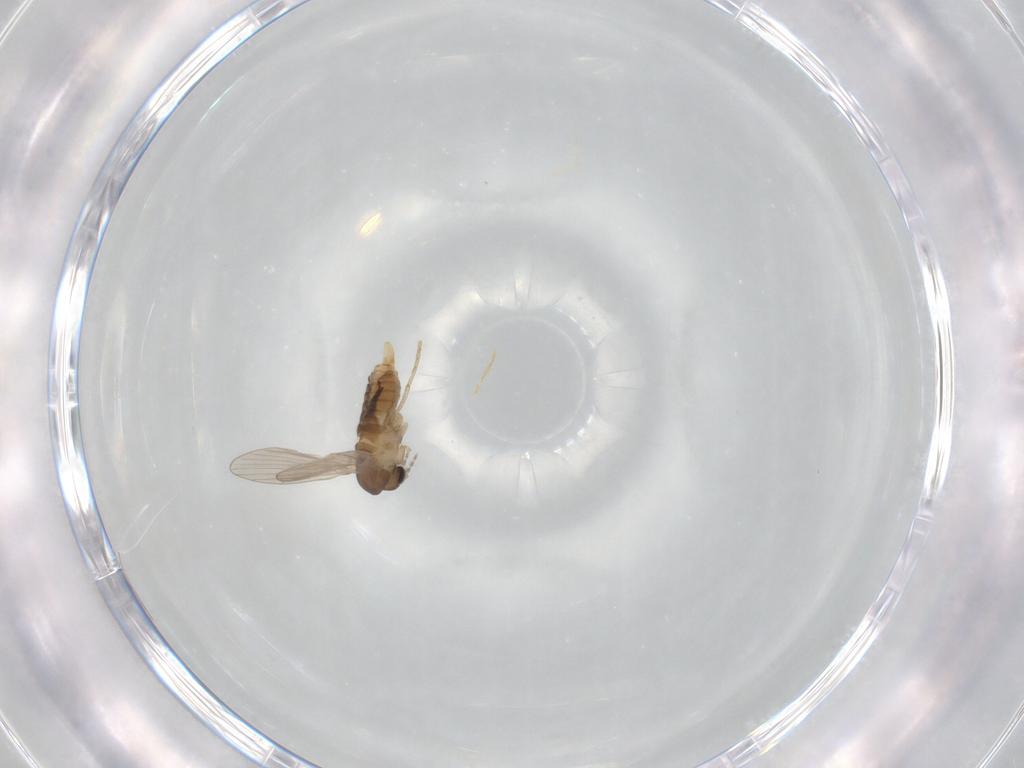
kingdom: Animalia
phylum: Arthropoda
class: Insecta
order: Diptera
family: Culicidae
